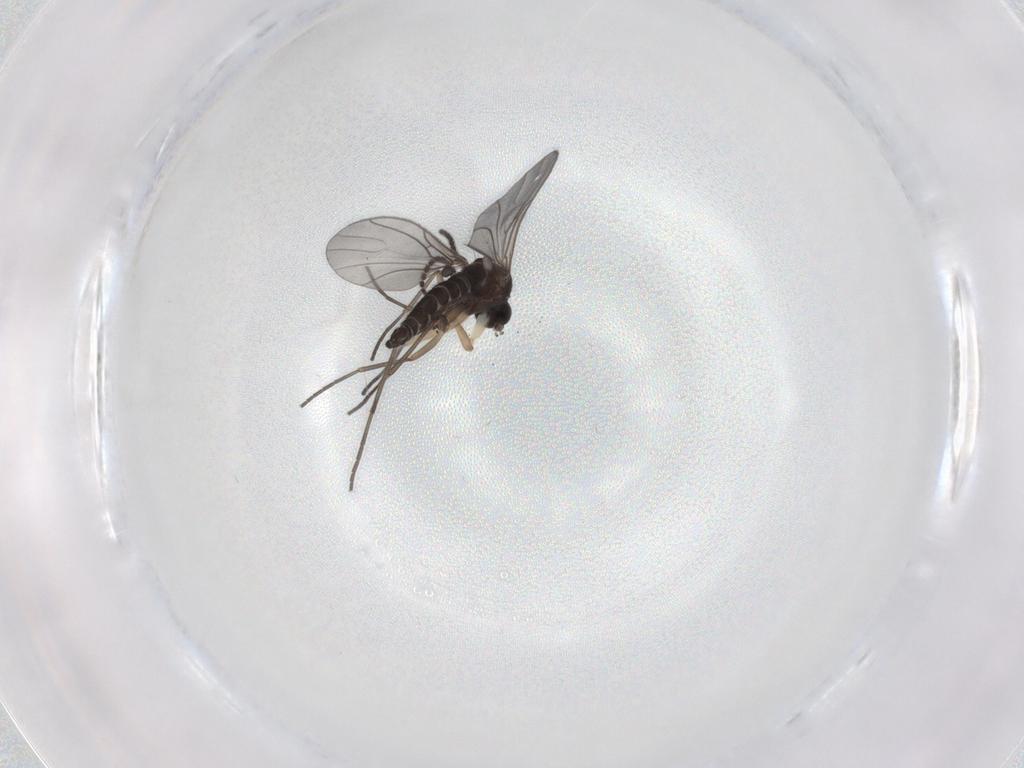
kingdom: Animalia
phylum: Arthropoda
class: Insecta
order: Diptera
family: Sciaridae
